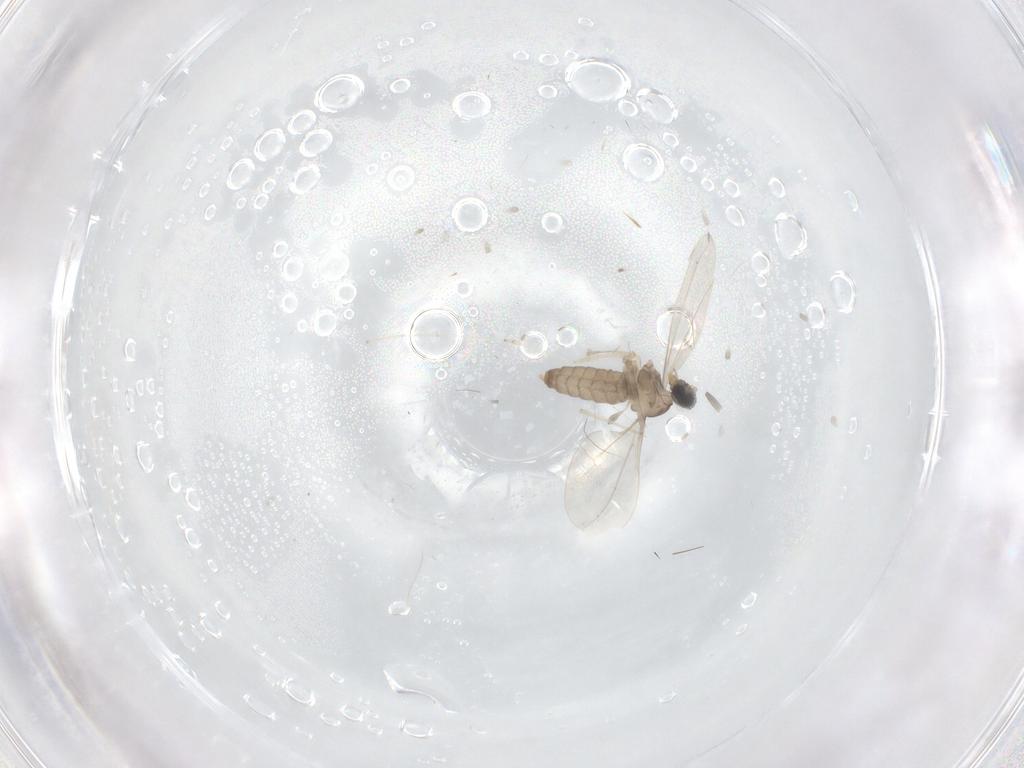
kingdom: Animalia
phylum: Arthropoda
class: Insecta
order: Diptera
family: Cecidomyiidae
